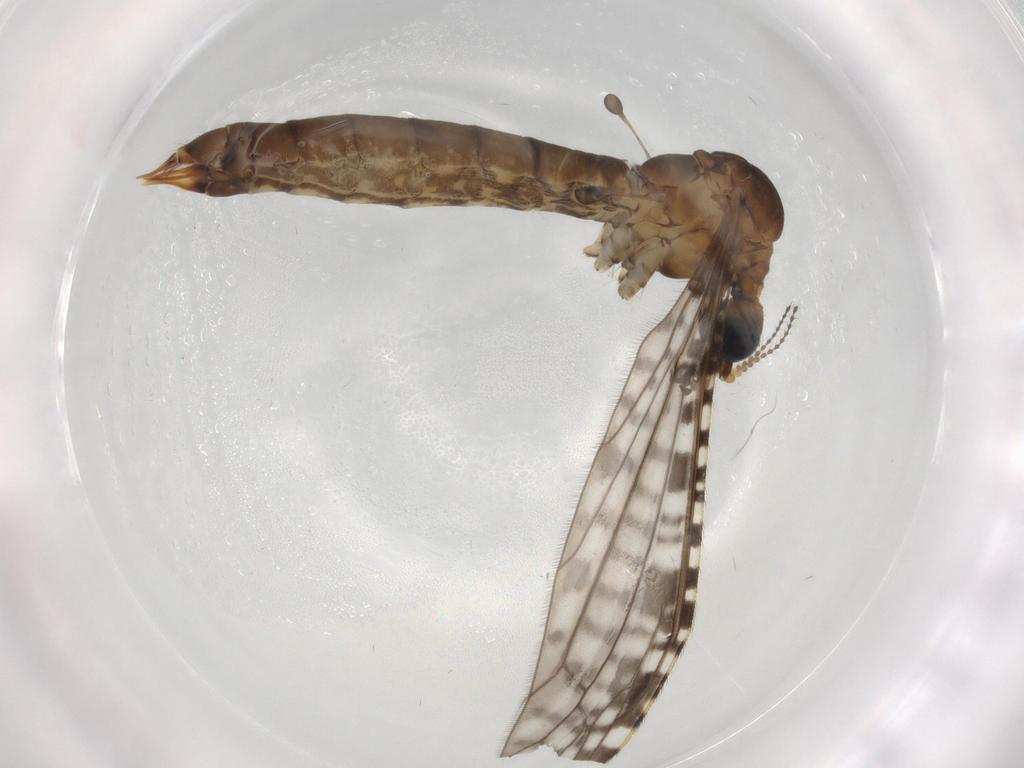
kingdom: Animalia
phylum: Arthropoda
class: Insecta
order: Diptera
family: Limoniidae
